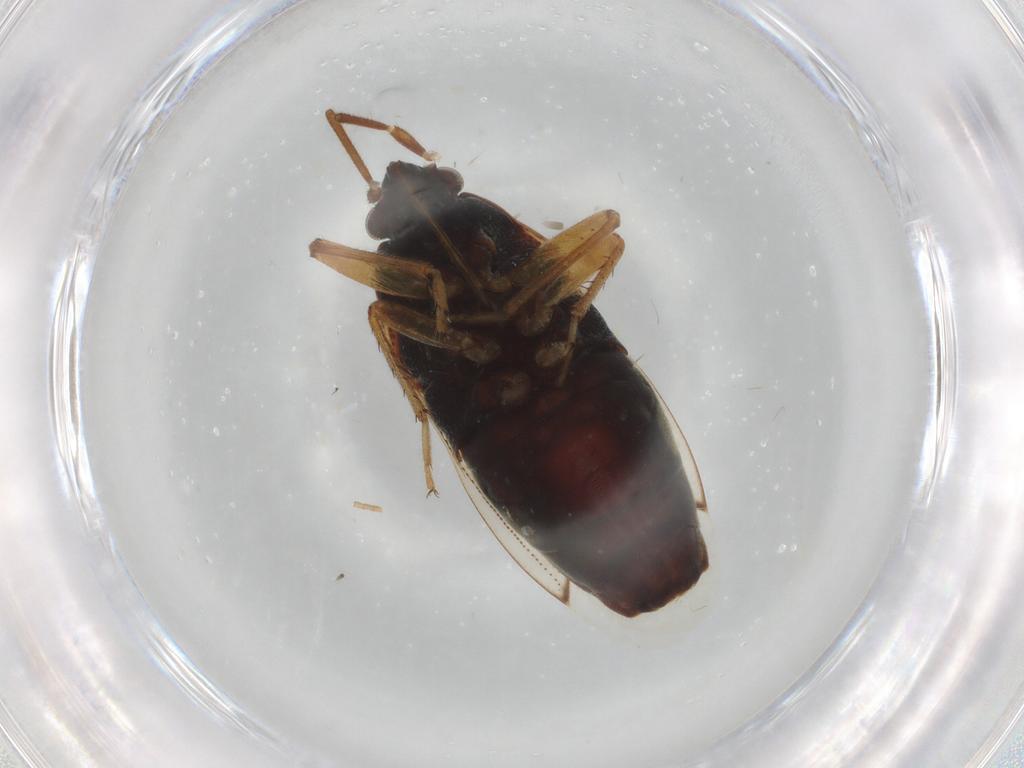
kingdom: Animalia
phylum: Arthropoda
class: Insecta
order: Hemiptera
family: Rhyparochromidae
